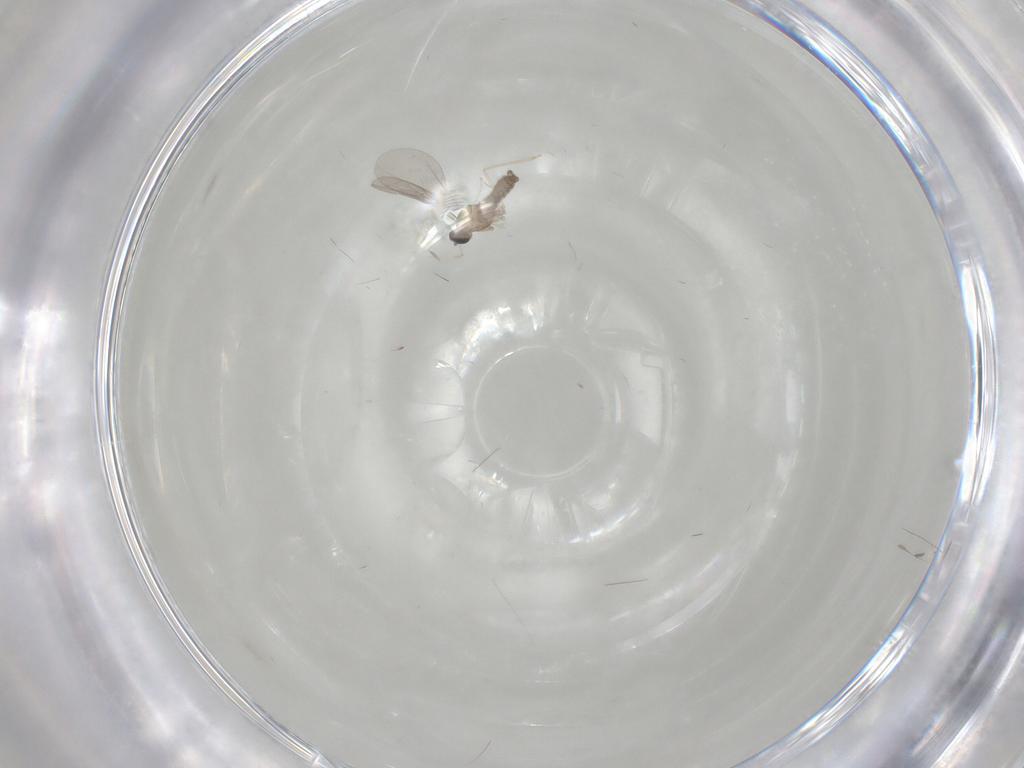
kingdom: Animalia
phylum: Arthropoda
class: Insecta
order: Diptera
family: Cecidomyiidae
